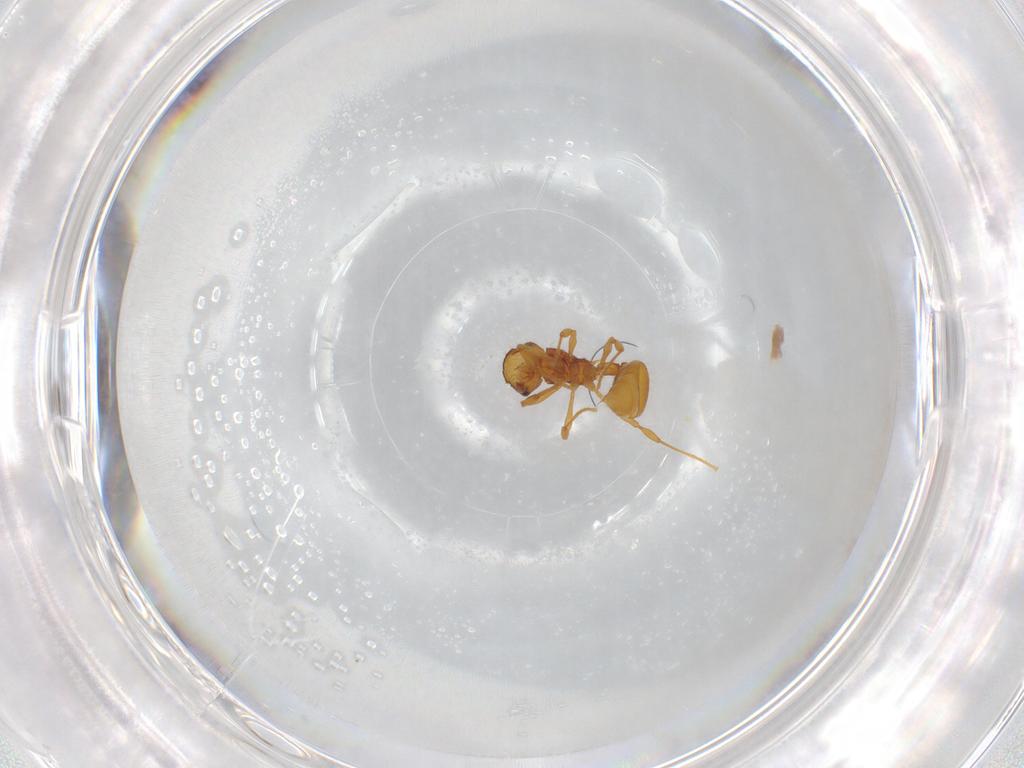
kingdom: Animalia
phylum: Arthropoda
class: Insecta
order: Hymenoptera
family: Formicidae
